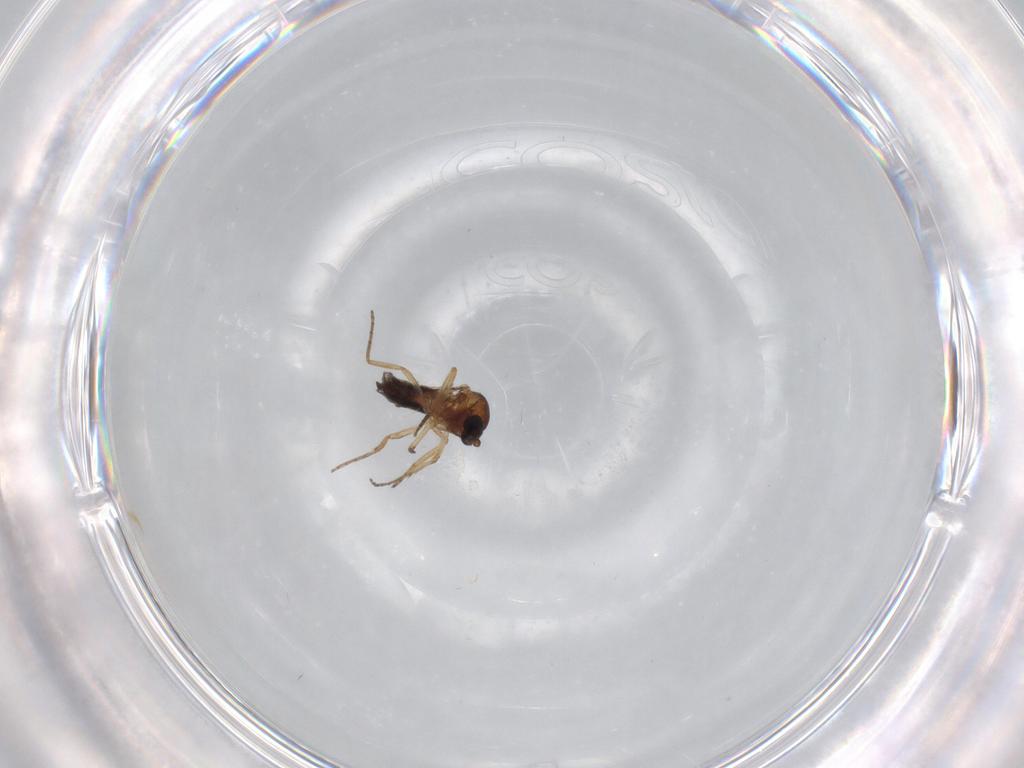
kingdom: Animalia
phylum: Arthropoda
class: Insecta
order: Diptera
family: Ceratopogonidae
